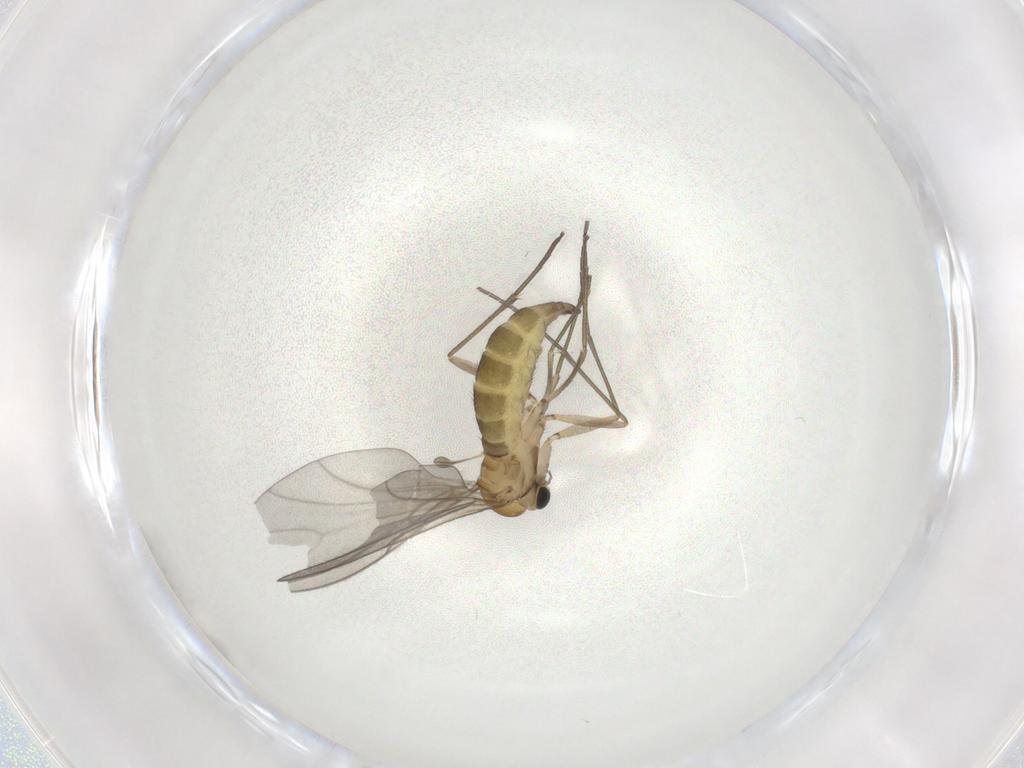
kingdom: Animalia
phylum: Arthropoda
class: Insecta
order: Diptera
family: Sciaridae
